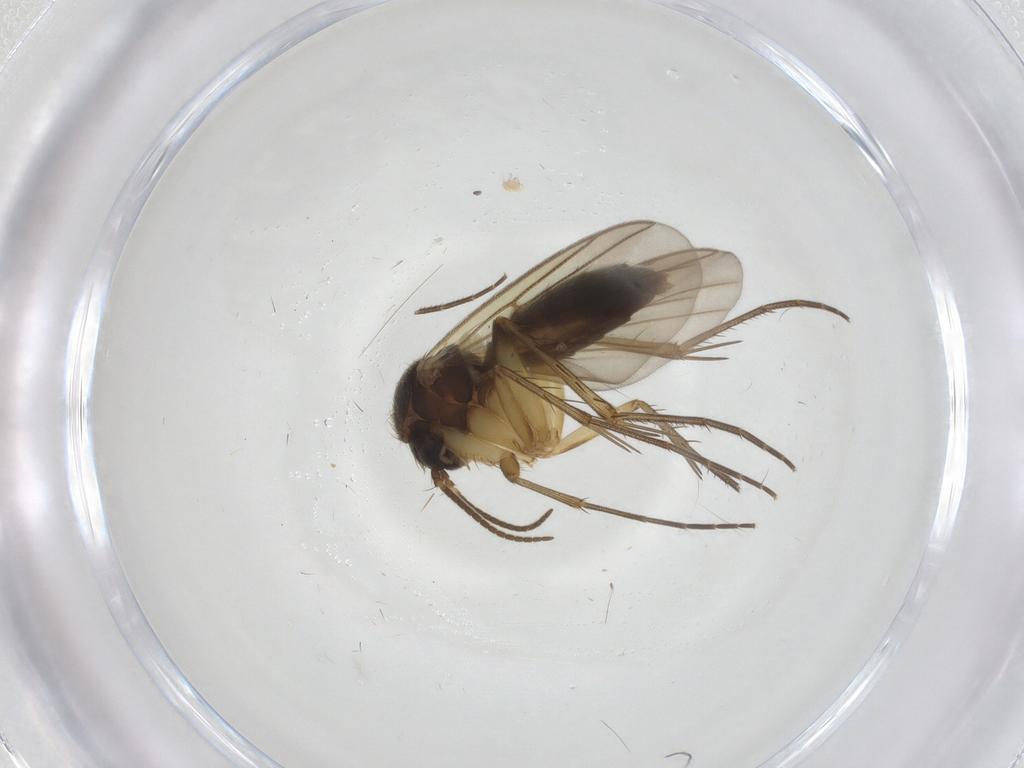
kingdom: Animalia
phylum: Arthropoda
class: Insecta
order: Diptera
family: Mycetophilidae
